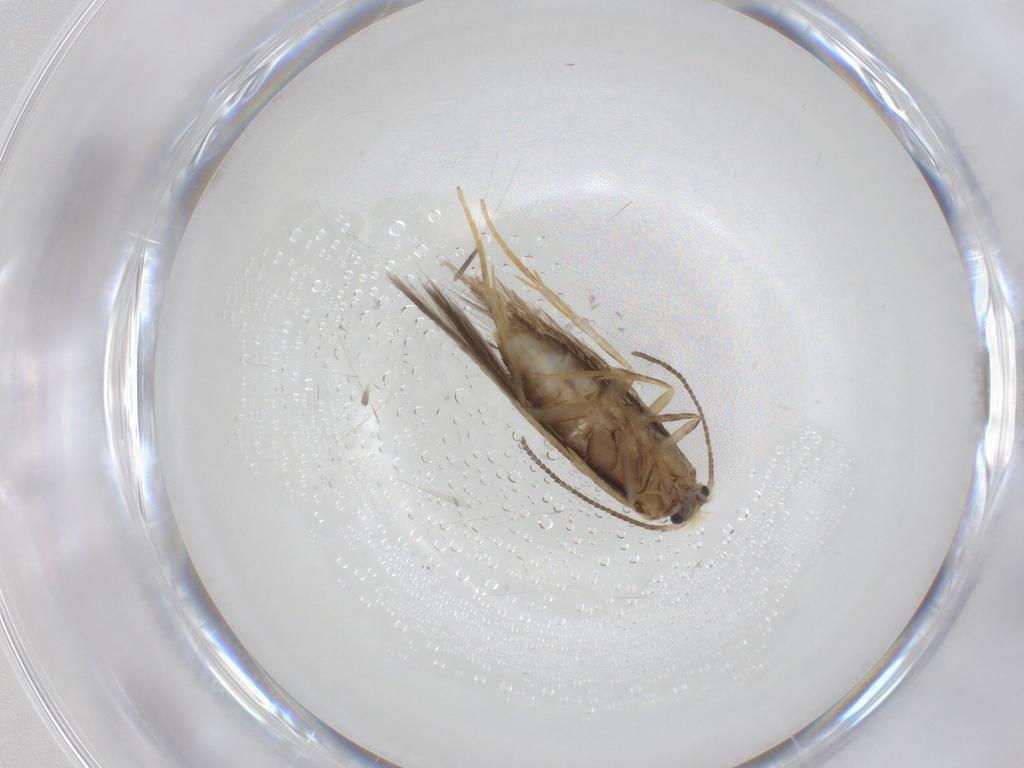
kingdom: Animalia
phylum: Arthropoda
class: Insecta
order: Lepidoptera
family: Nepticulidae
